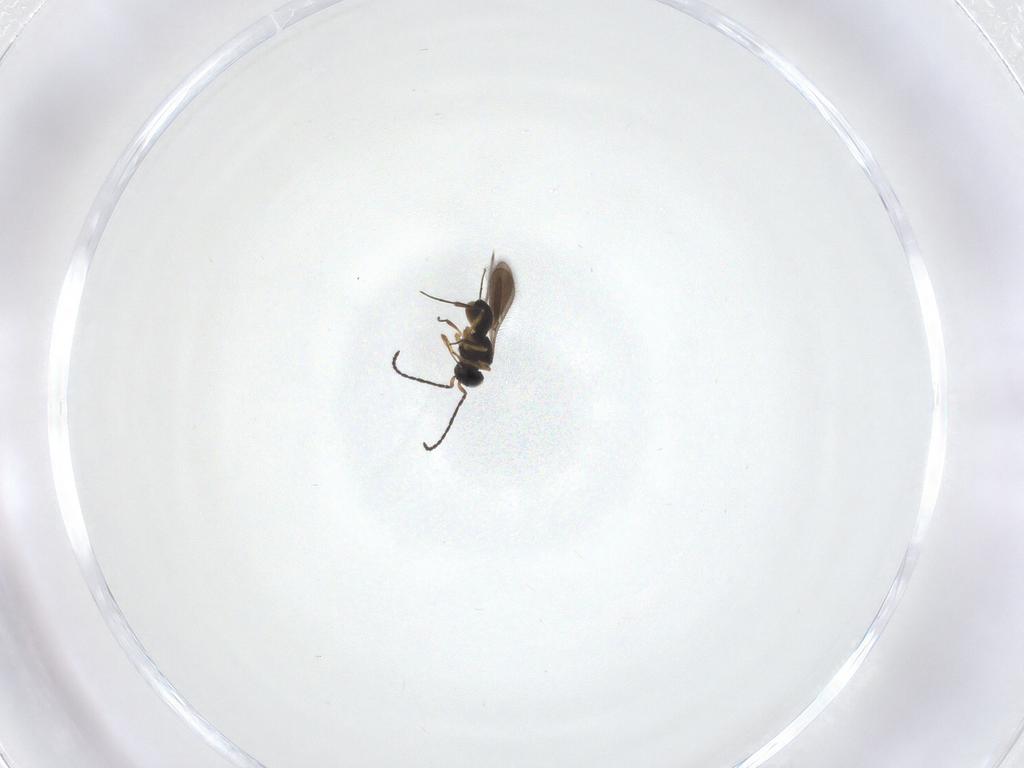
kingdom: Animalia
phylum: Arthropoda
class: Insecta
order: Hymenoptera
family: Scelionidae
